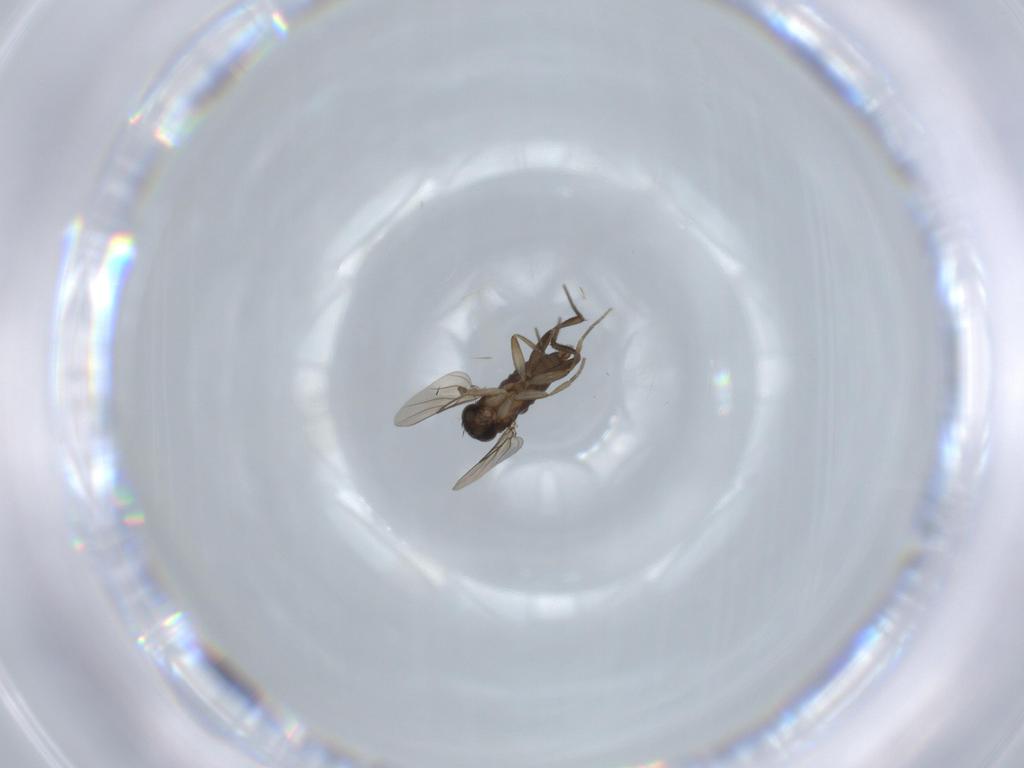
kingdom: Animalia
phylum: Arthropoda
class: Insecta
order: Diptera
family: Phoridae
